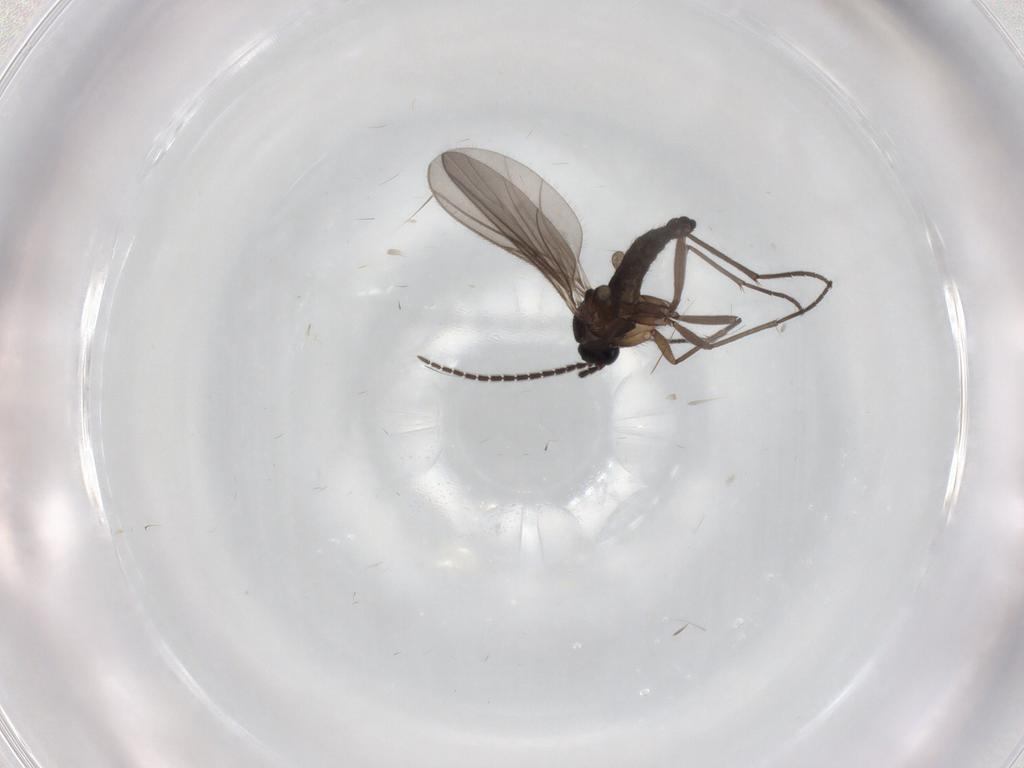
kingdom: Animalia
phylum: Arthropoda
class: Insecta
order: Diptera
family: Sciaridae
